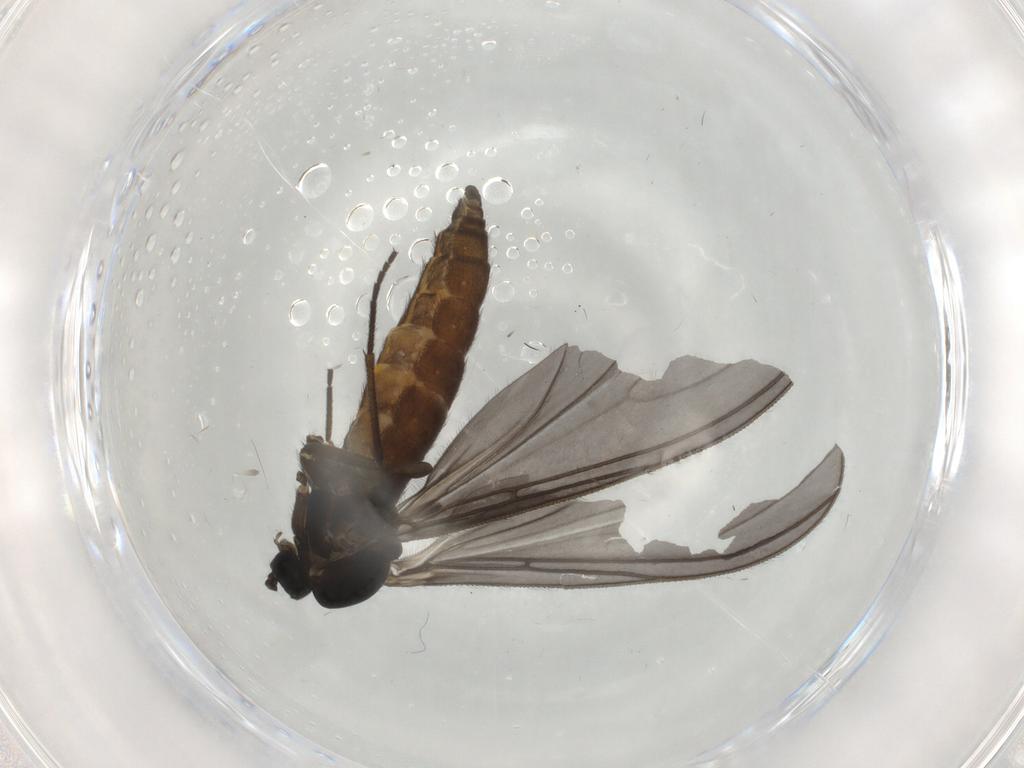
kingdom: Animalia
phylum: Arthropoda
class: Insecta
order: Diptera
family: Sciaridae
